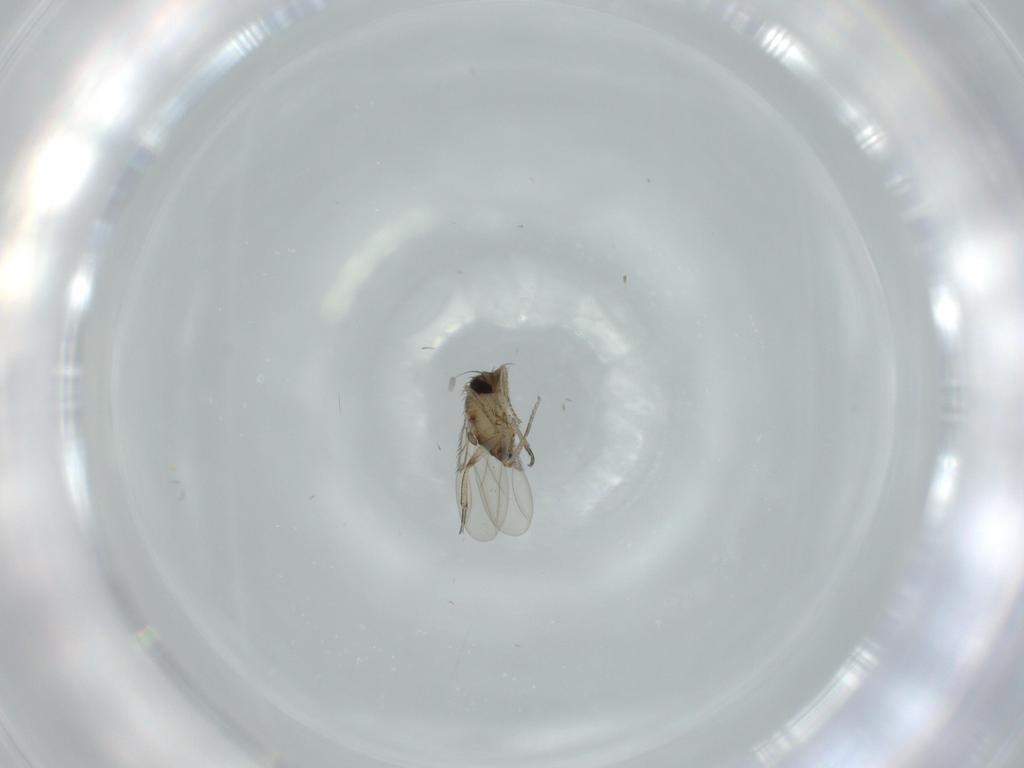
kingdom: Animalia
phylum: Arthropoda
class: Insecta
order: Diptera
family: Phoridae
